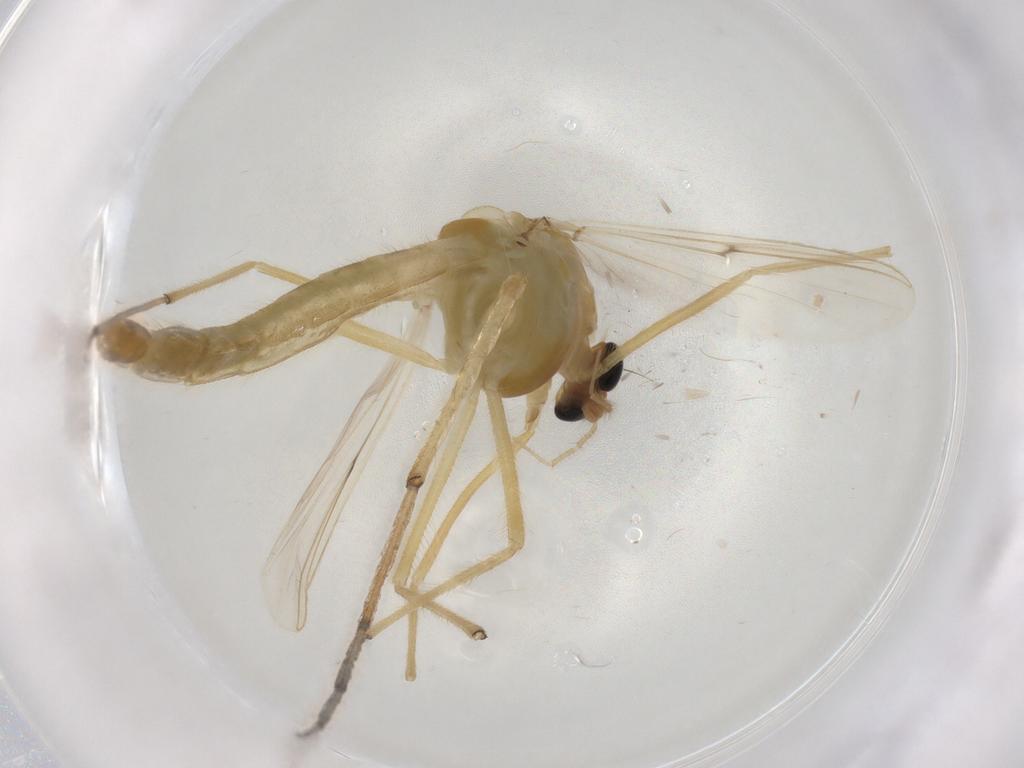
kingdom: Animalia
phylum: Arthropoda
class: Insecta
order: Diptera
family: Chironomidae
